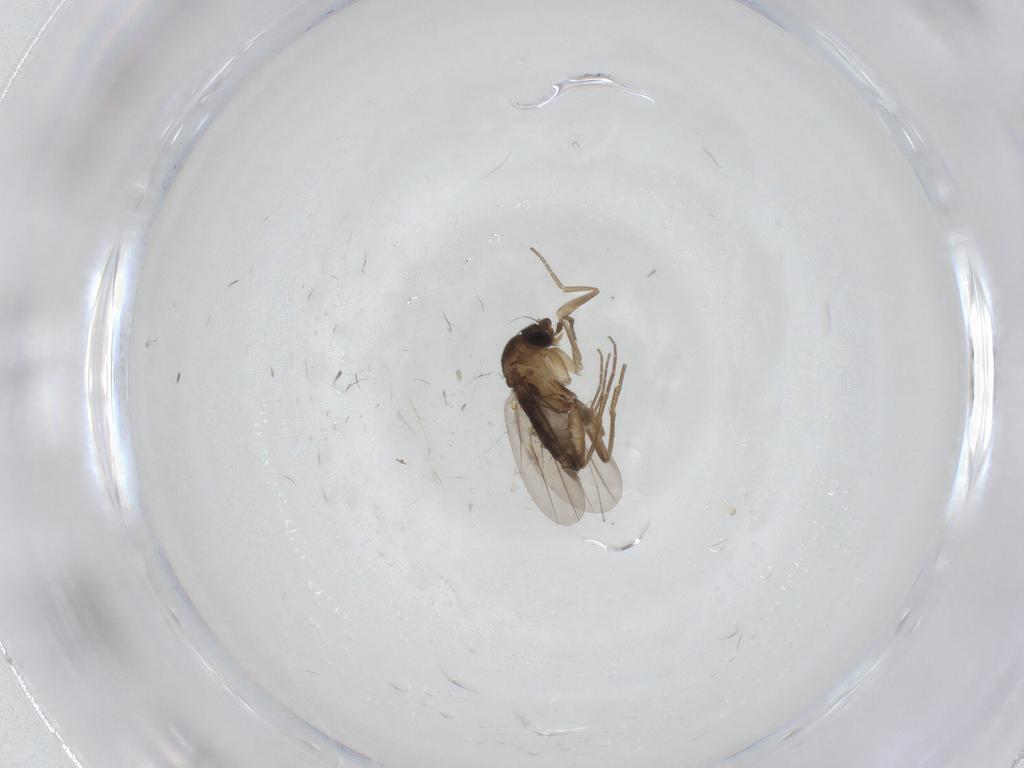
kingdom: Animalia
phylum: Arthropoda
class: Insecta
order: Diptera
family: Phoridae
